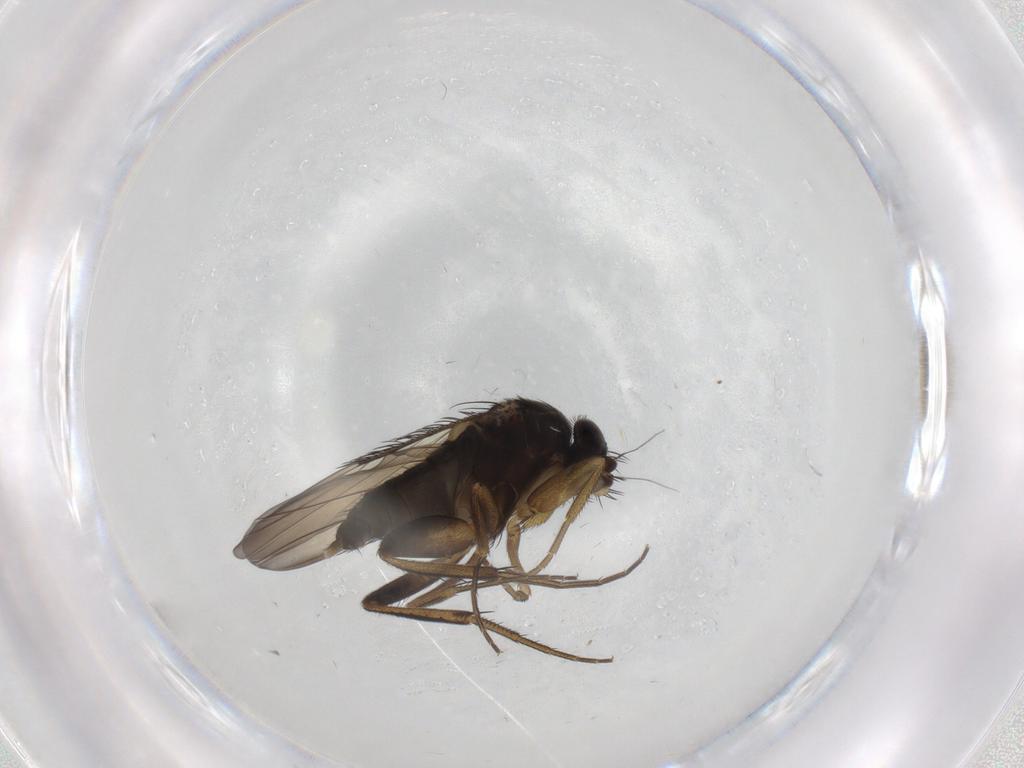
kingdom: Animalia
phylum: Arthropoda
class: Insecta
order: Diptera
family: Phoridae
